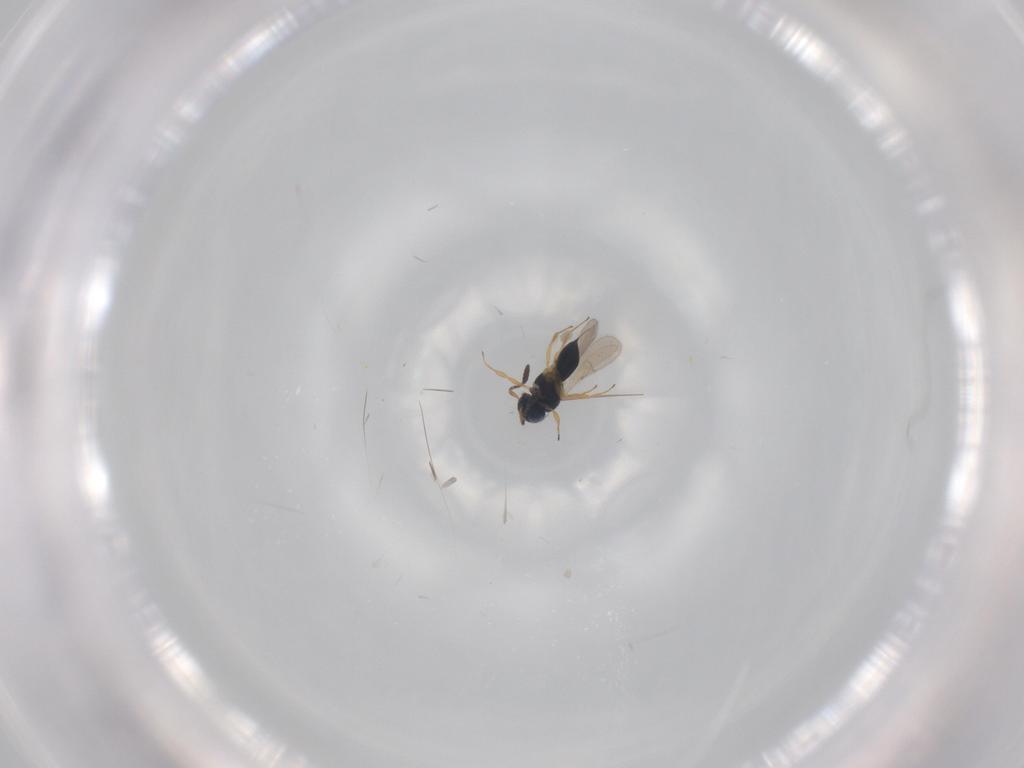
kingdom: Animalia
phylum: Arthropoda
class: Insecta
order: Hymenoptera
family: Scelionidae
